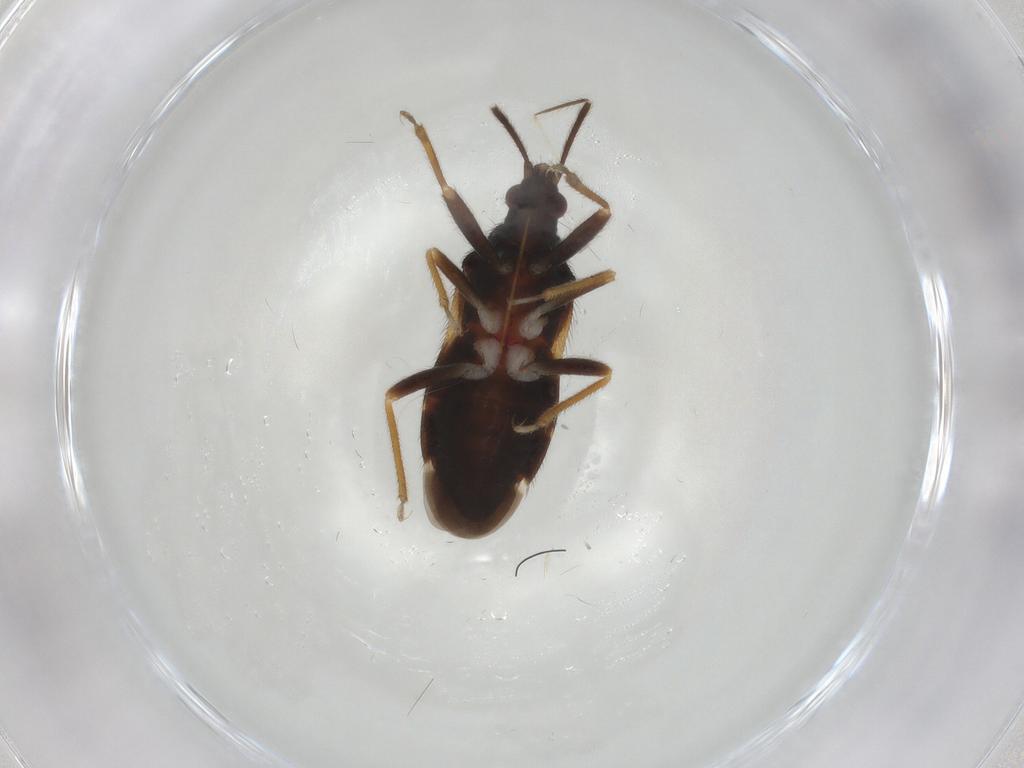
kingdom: Animalia
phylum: Arthropoda
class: Insecta
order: Hemiptera
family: Anthocoridae
